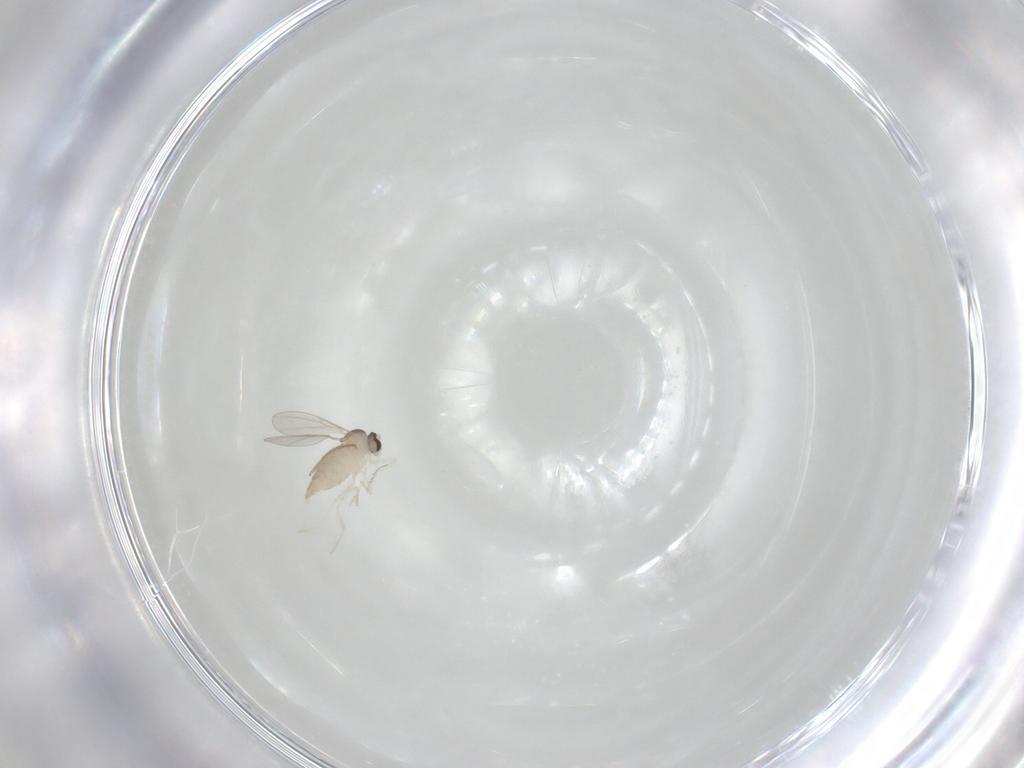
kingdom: Animalia
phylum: Arthropoda
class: Insecta
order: Diptera
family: Cecidomyiidae
